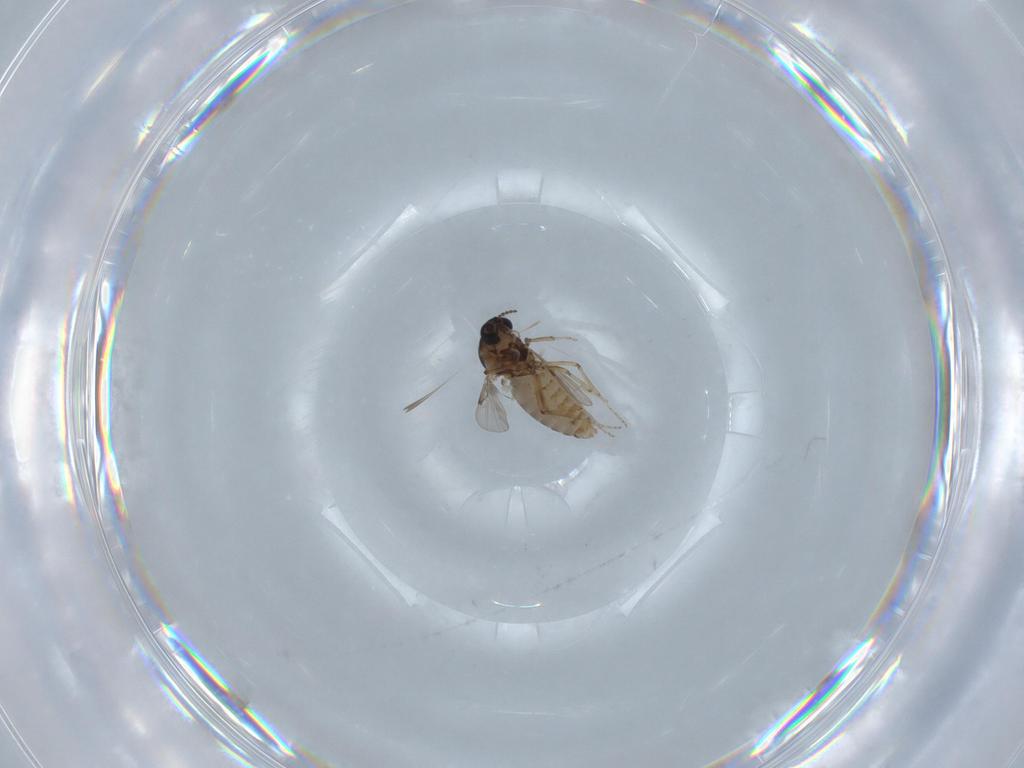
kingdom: Animalia
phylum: Arthropoda
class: Insecta
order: Diptera
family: Ceratopogonidae
